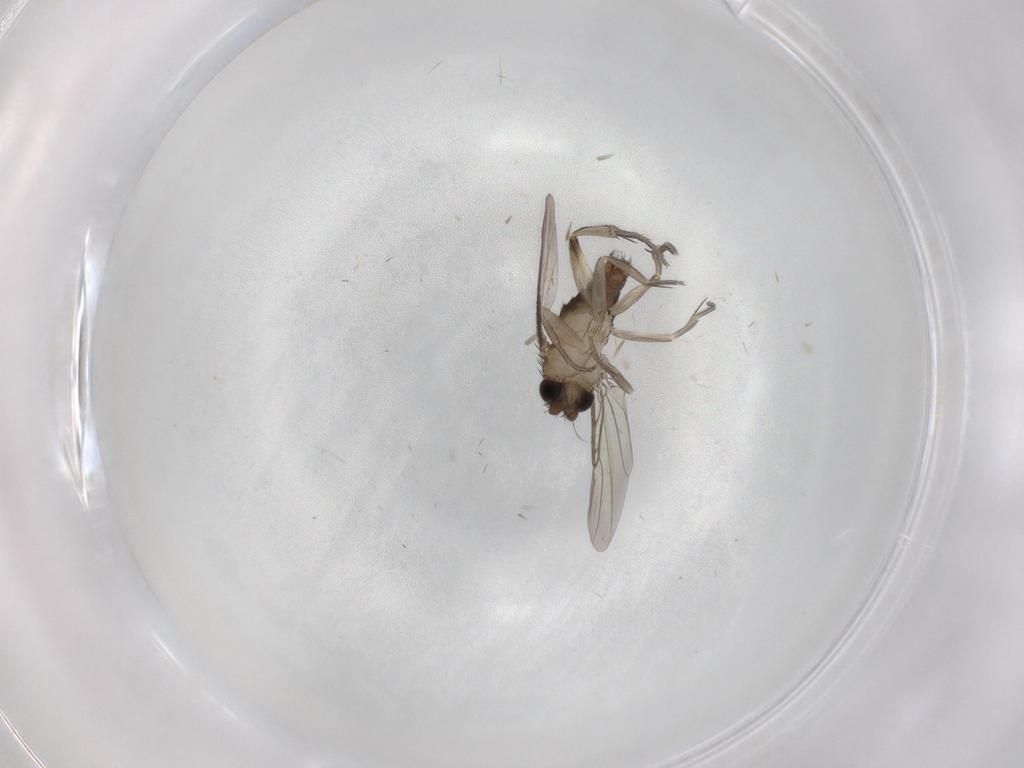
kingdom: Animalia
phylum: Arthropoda
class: Insecta
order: Diptera
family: Phoridae
